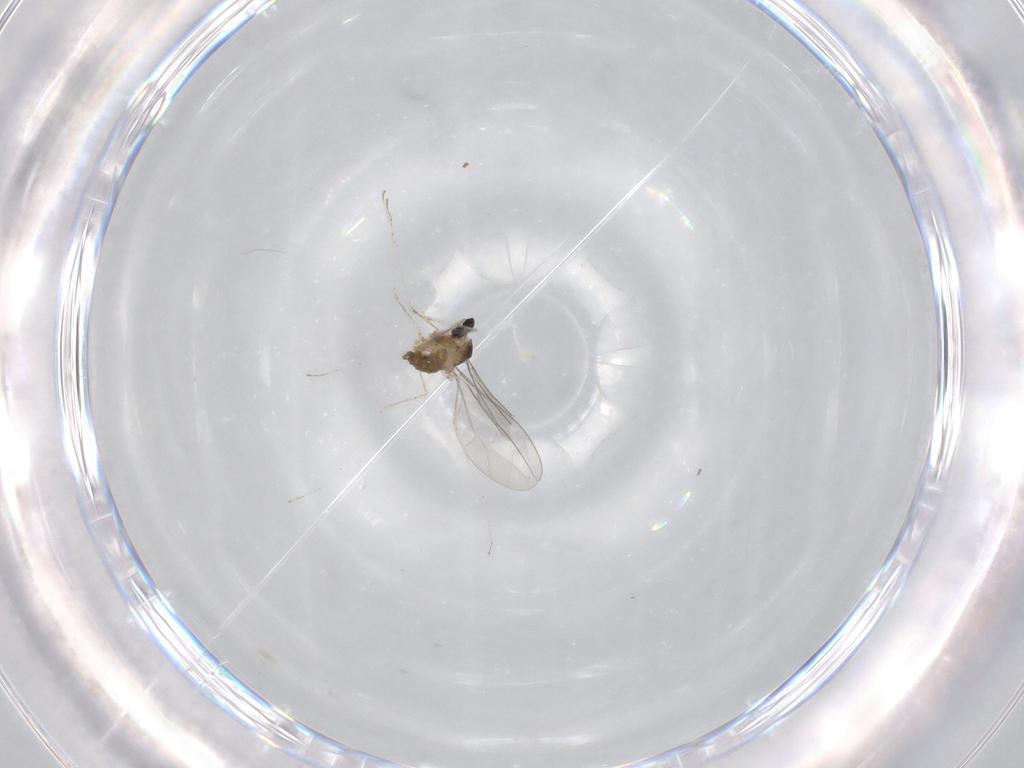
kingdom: Animalia
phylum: Arthropoda
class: Insecta
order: Diptera
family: Cecidomyiidae
